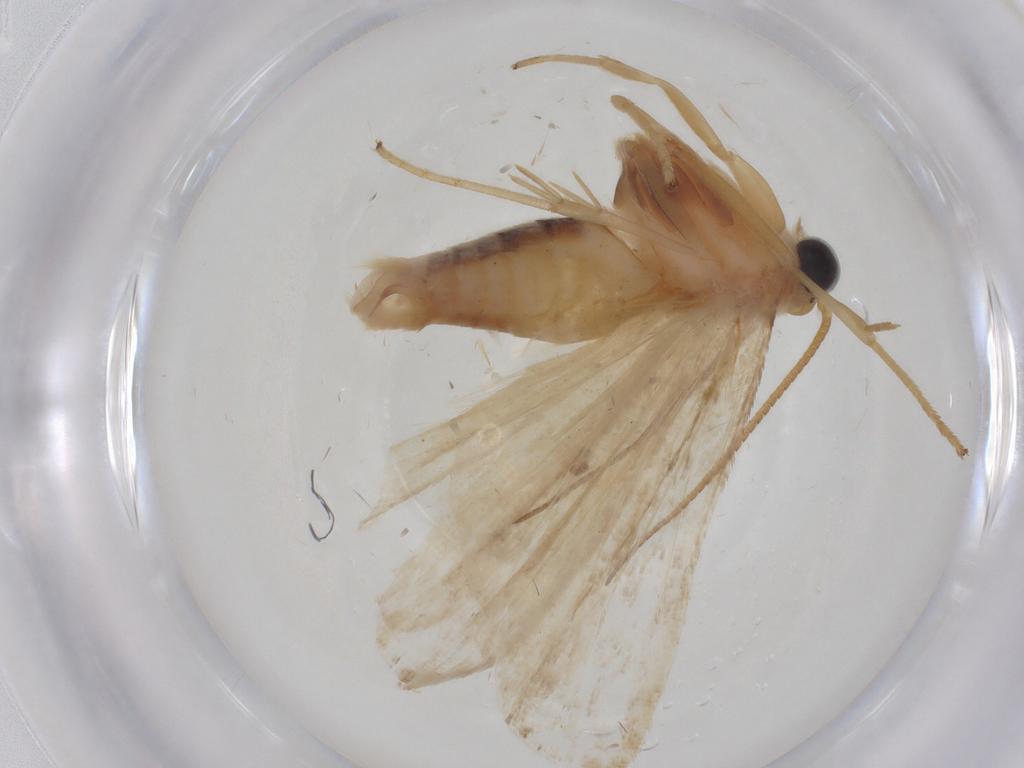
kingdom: Animalia
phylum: Arthropoda
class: Insecta
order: Lepidoptera
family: Pyralidae
